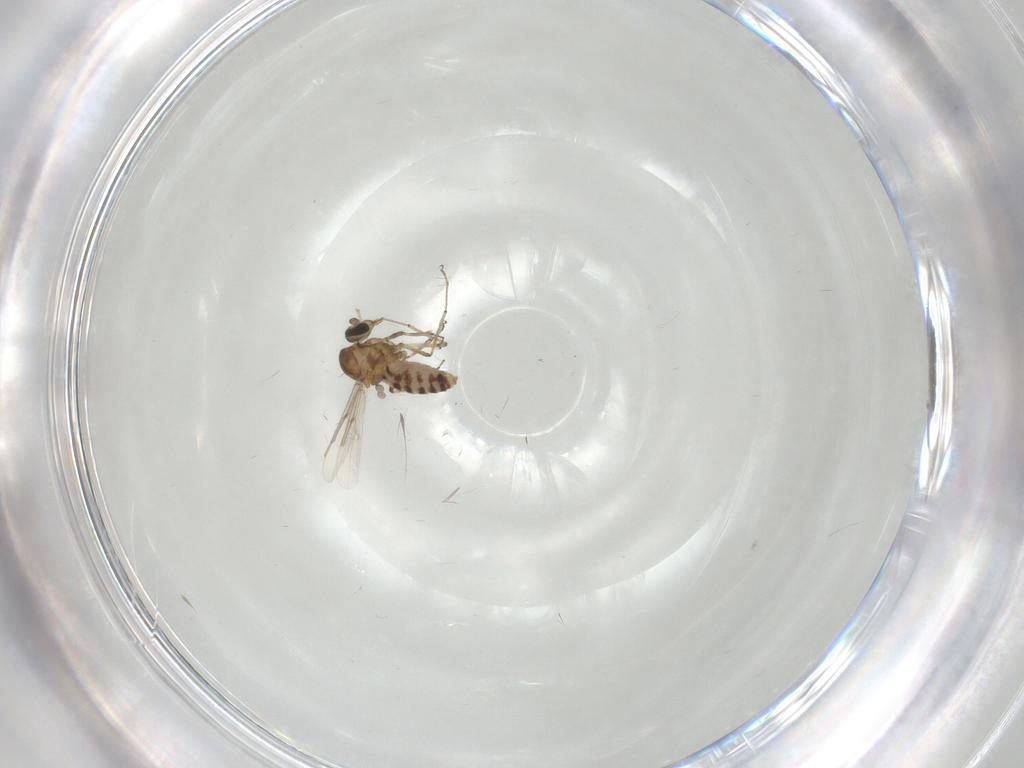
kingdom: Animalia
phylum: Arthropoda
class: Insecta
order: Diptera
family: Ceratopogonidae
